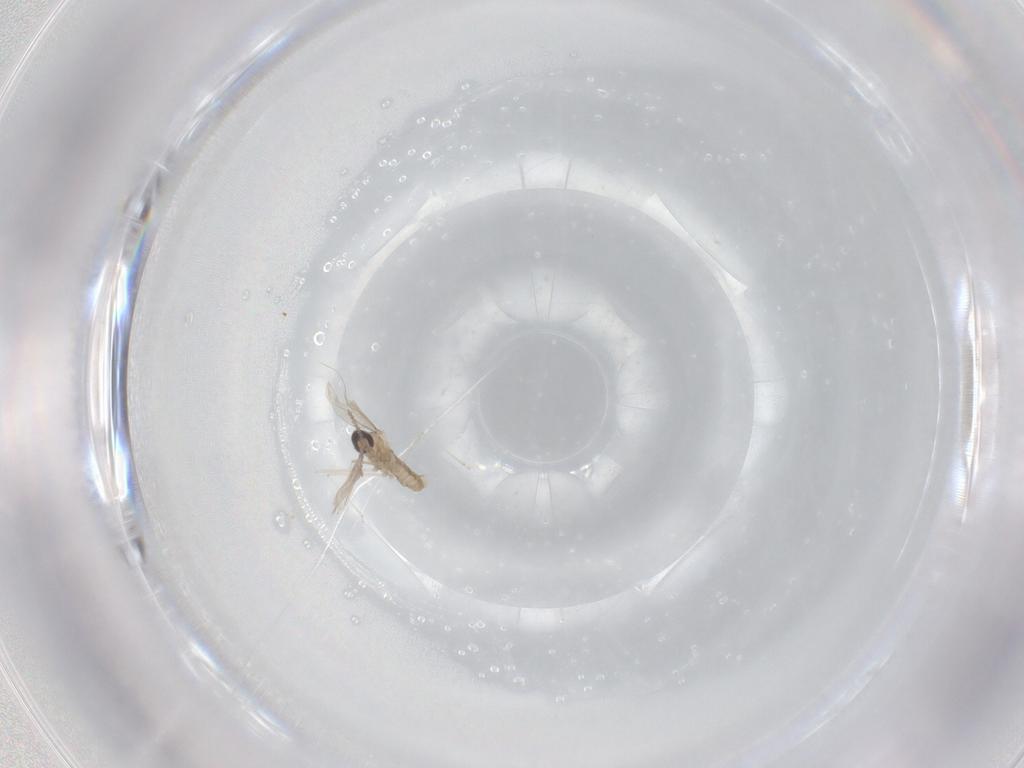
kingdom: Animalia
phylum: Arthropoda
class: Insecta
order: Diptera
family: Cecidomyiidae
